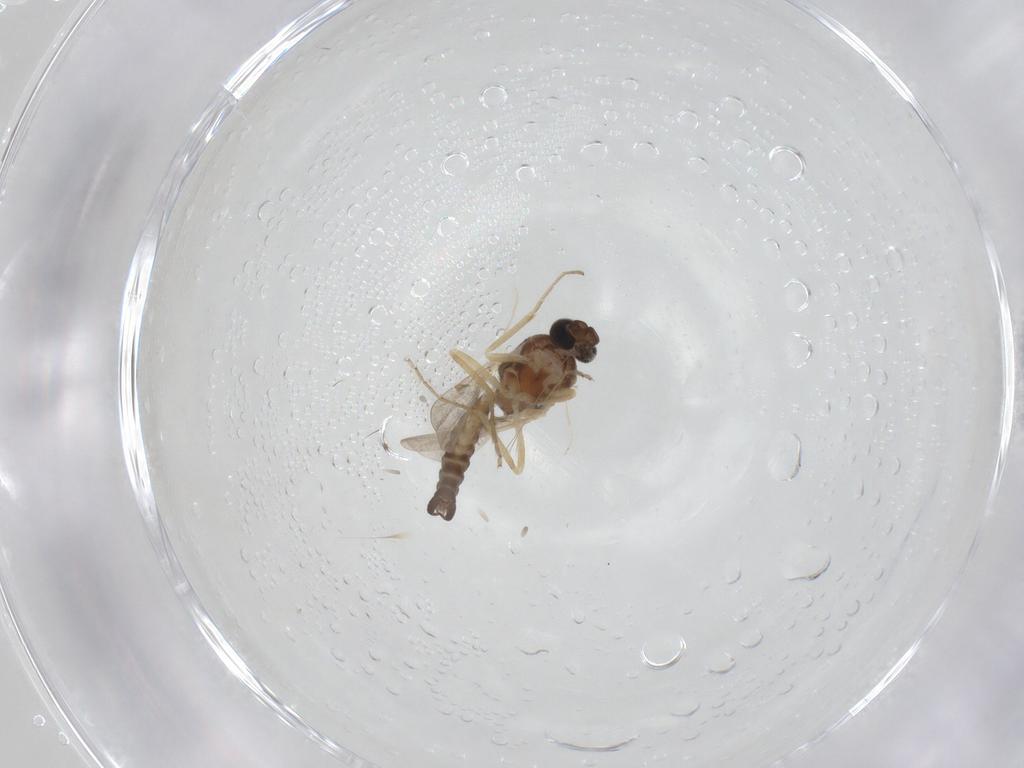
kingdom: Animalia
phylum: Arthropoda
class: Insecta
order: Diptera
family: Ceratopogonidae
